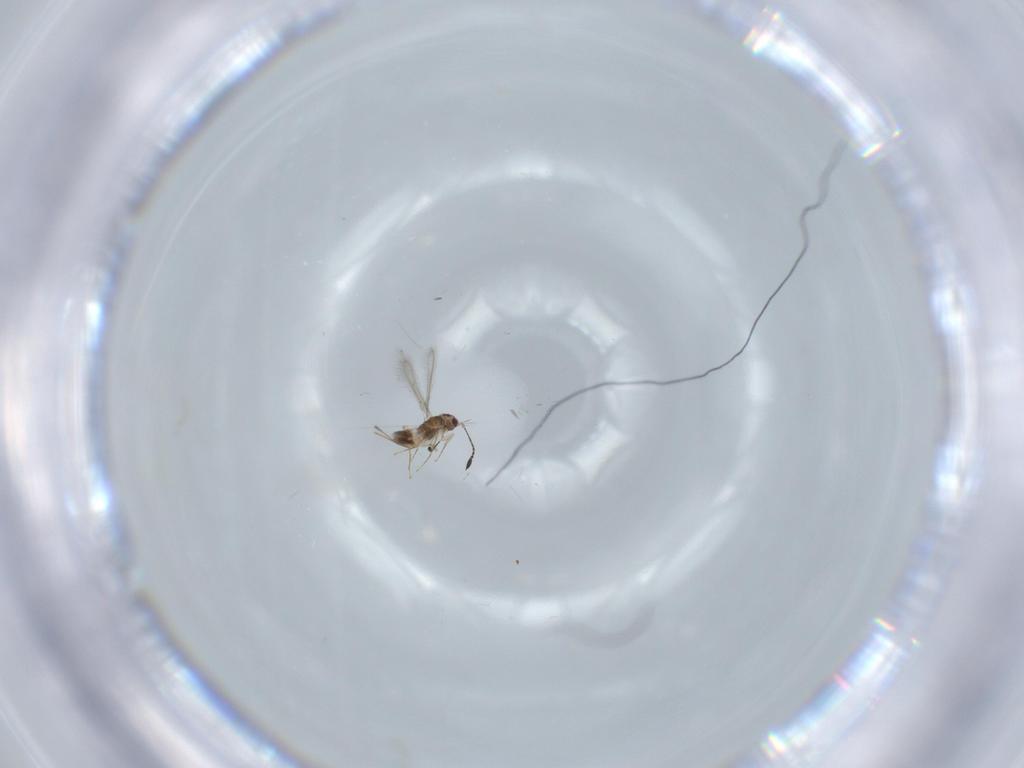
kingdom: Animalia
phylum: Arthropoda
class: Insecta
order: Hymenoptera
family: Mymaridae
